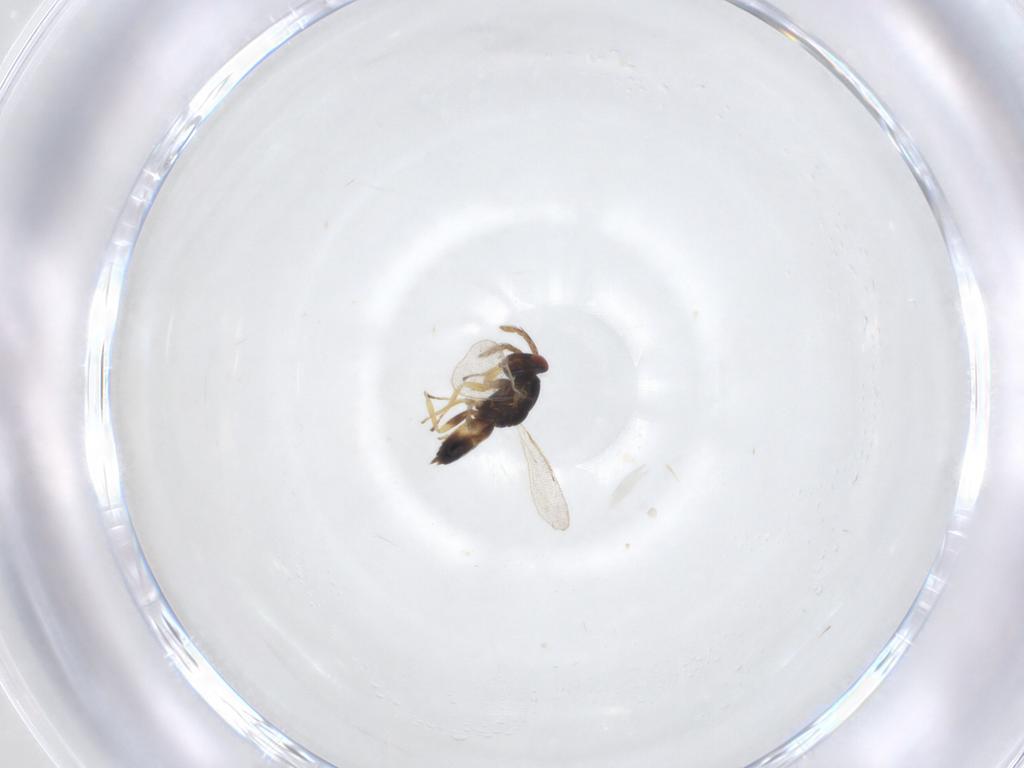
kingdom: Animalia
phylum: Arthropoda
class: Insecta
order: Hymenoptera
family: Eulophidae
